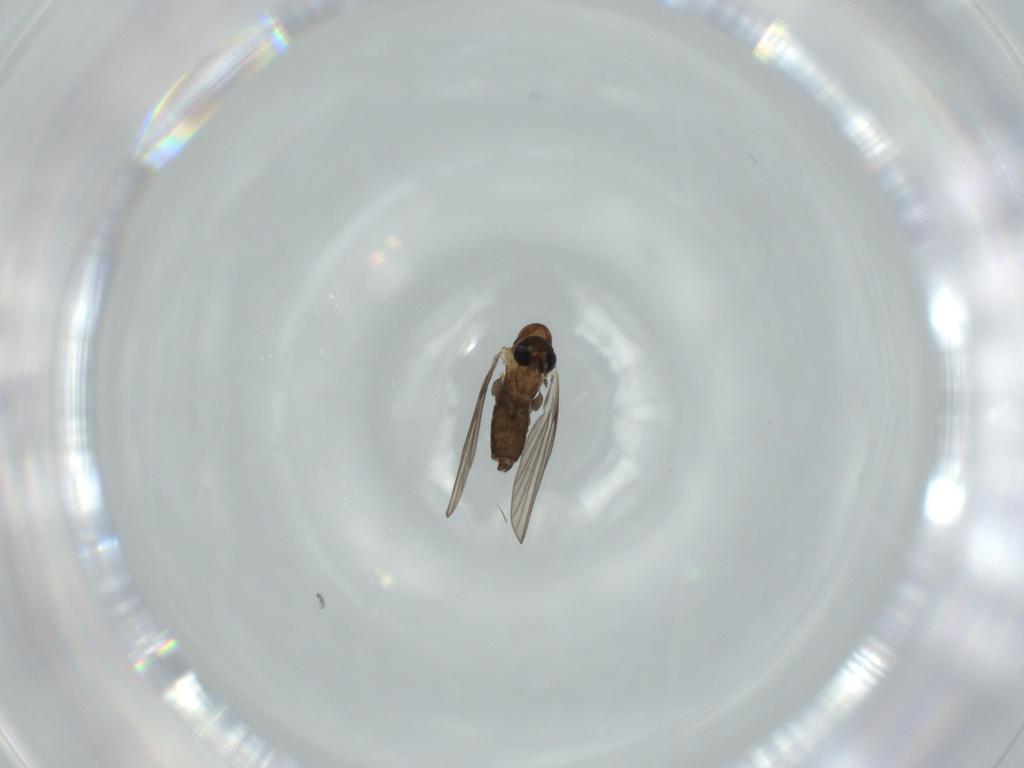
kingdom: Animalia
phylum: Arthropoda
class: Insecta
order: Diptera
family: Psychodidae
